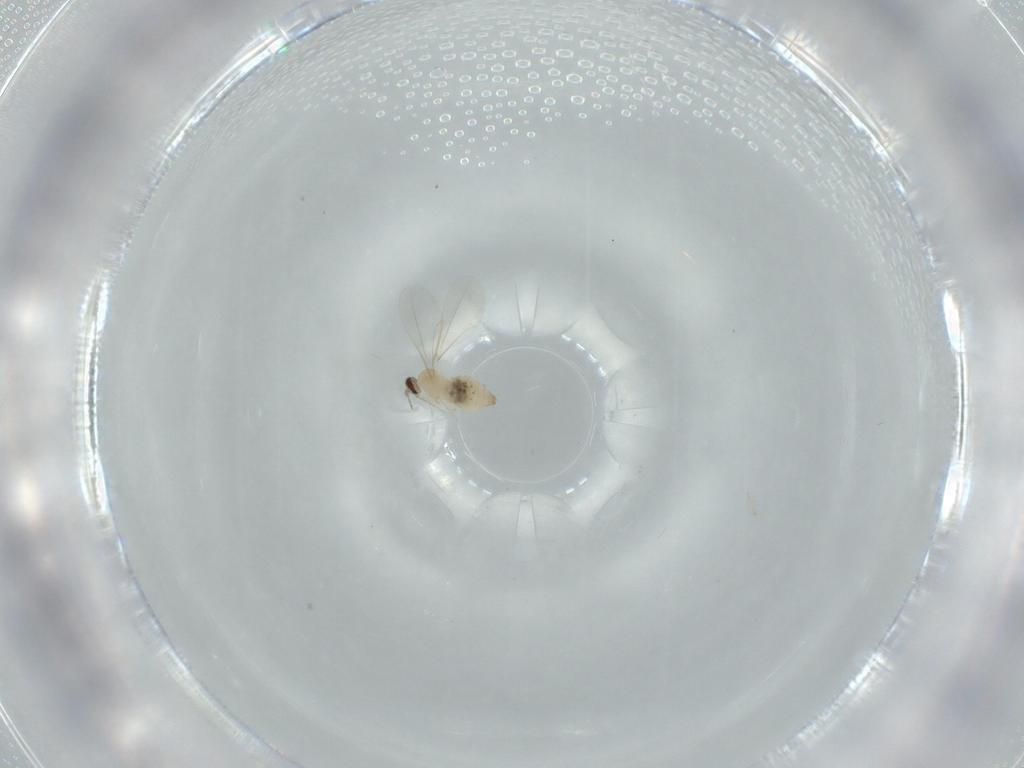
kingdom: Animalia
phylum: Arthropoda
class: Insecta
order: Diptera
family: Cecidomyiidae
